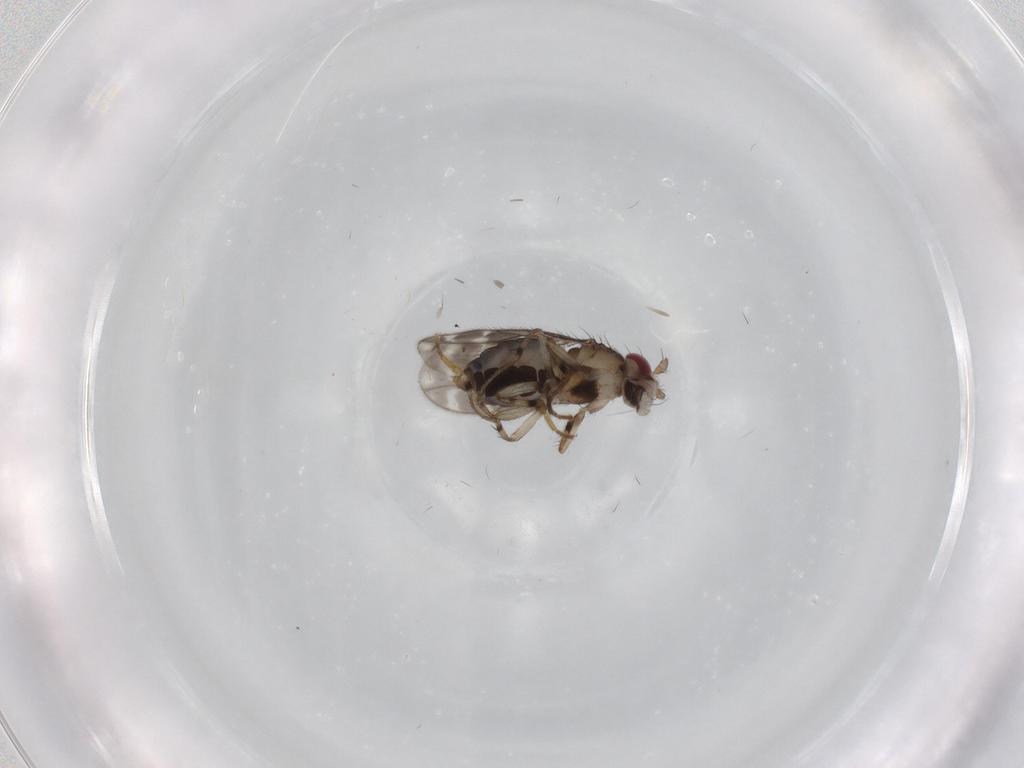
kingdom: Animalia
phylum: Arthropoda
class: Insecta
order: Diptera
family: Sphaeroceridae
